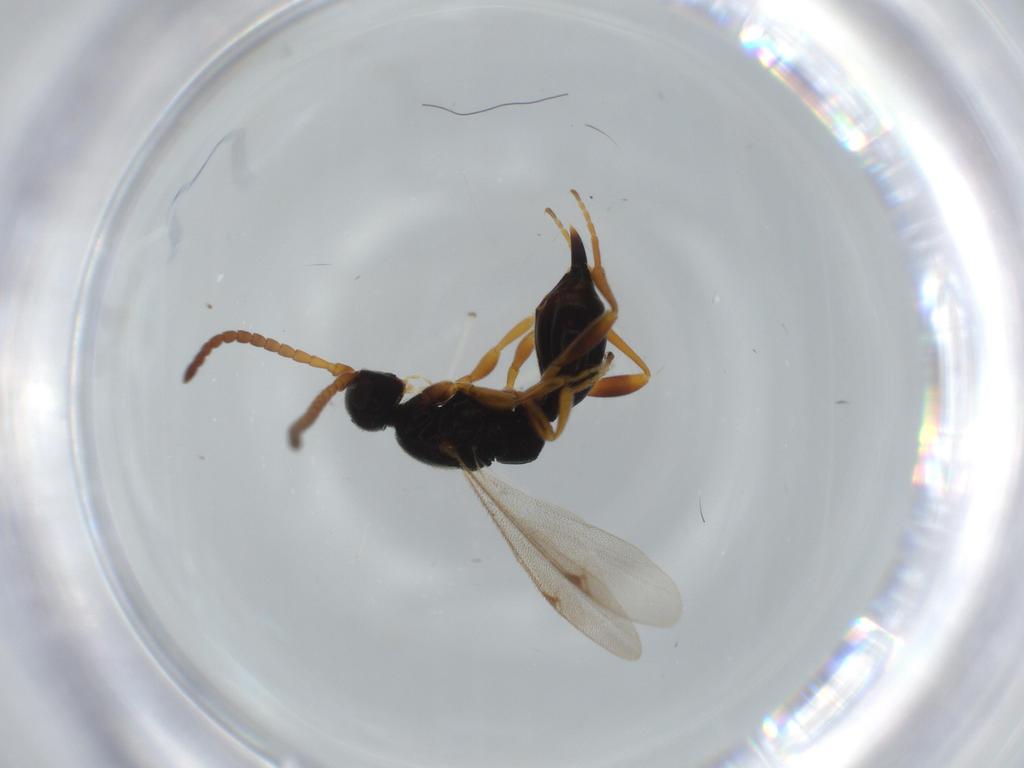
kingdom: Animalia
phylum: Arthropoda
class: Insecta
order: Hymenoptera
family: Proctotrupidae
